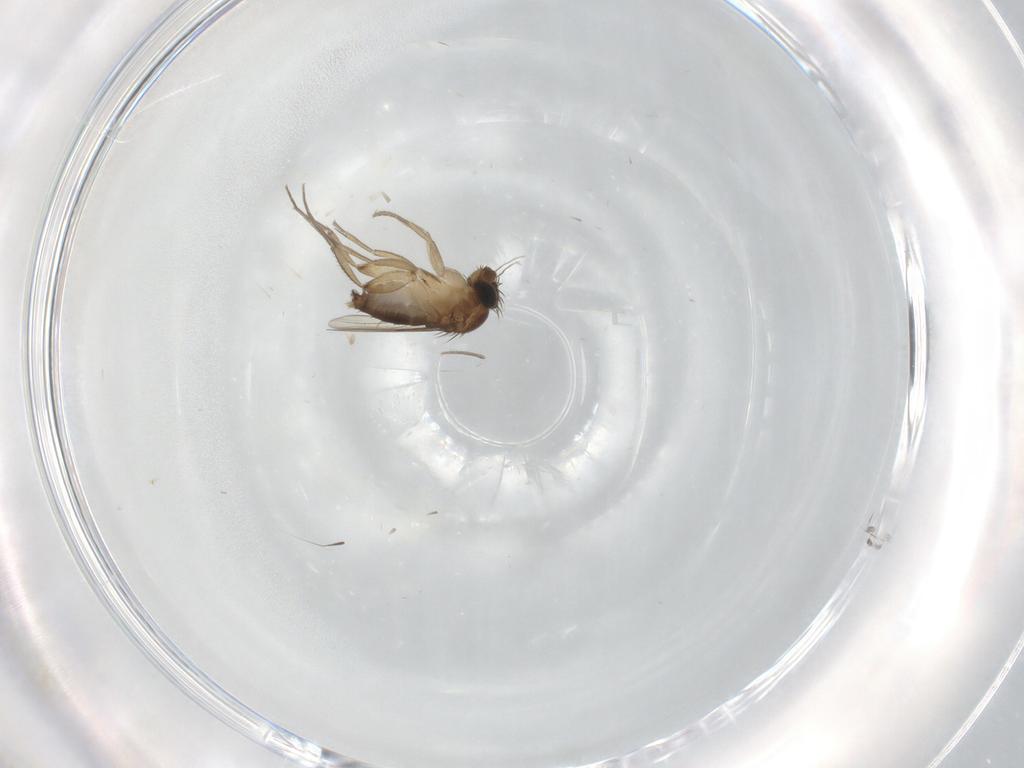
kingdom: Animalia
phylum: Arthropoda
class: Insecta
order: Diptera
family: Phoridae
